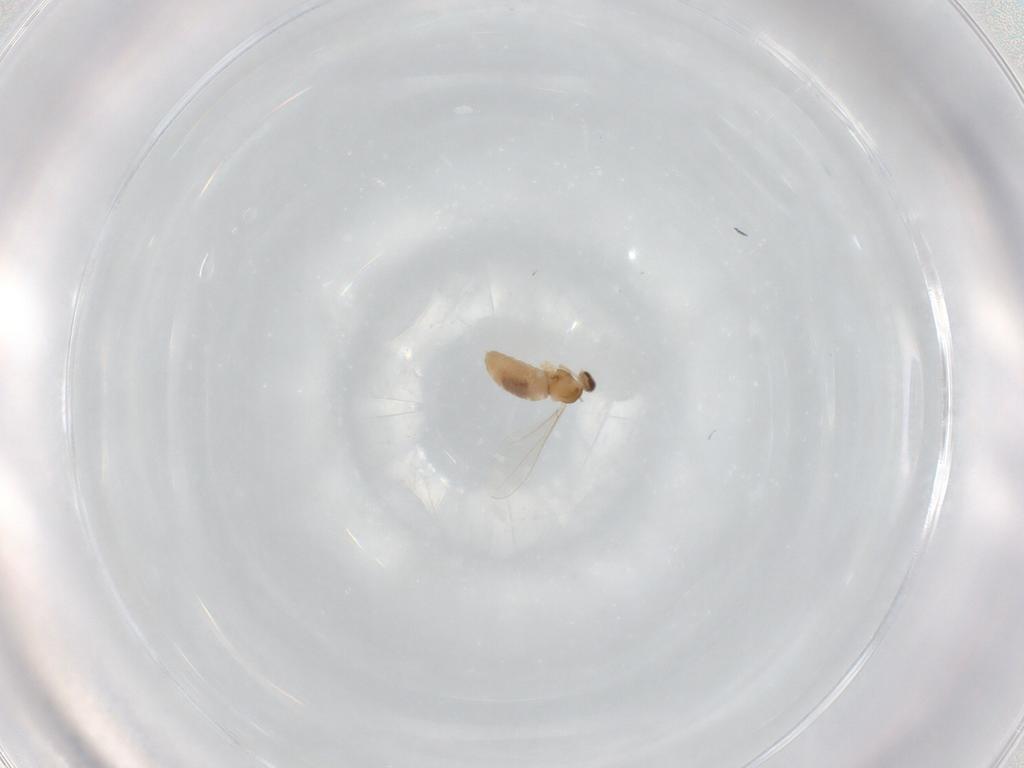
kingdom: Animalia
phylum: Arthropoda
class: Insecta
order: Diptera
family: Cecidomyiidae
